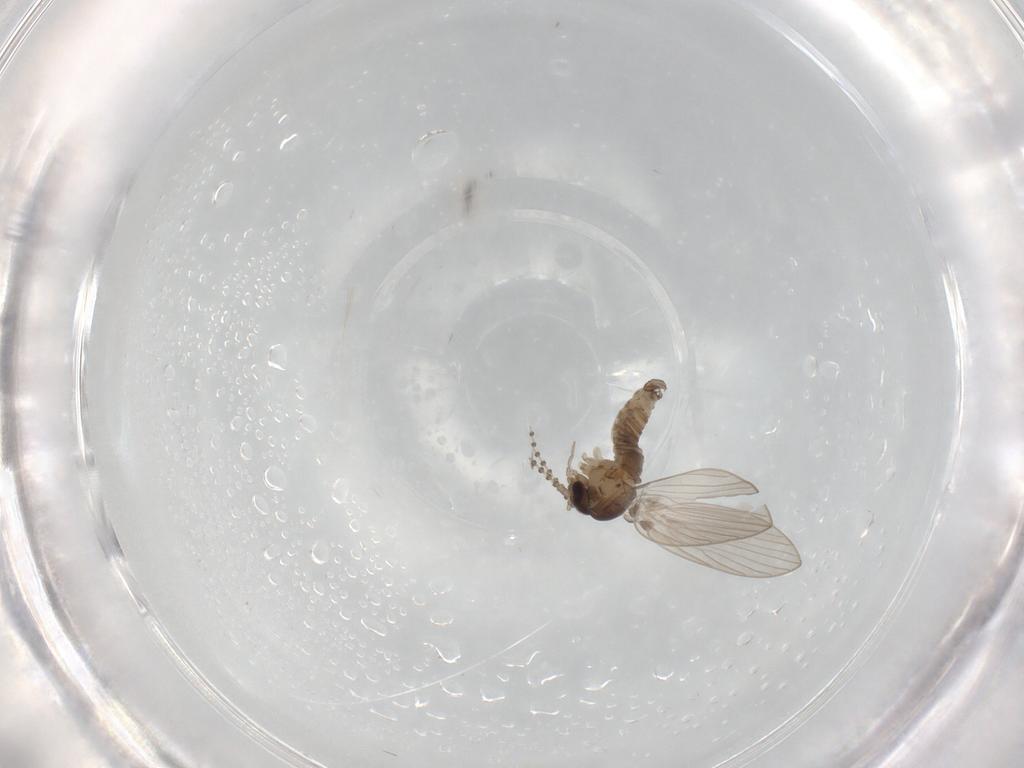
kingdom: Animalia
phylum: Arthropoda
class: Insecta
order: Diptera
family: Psychodidae
